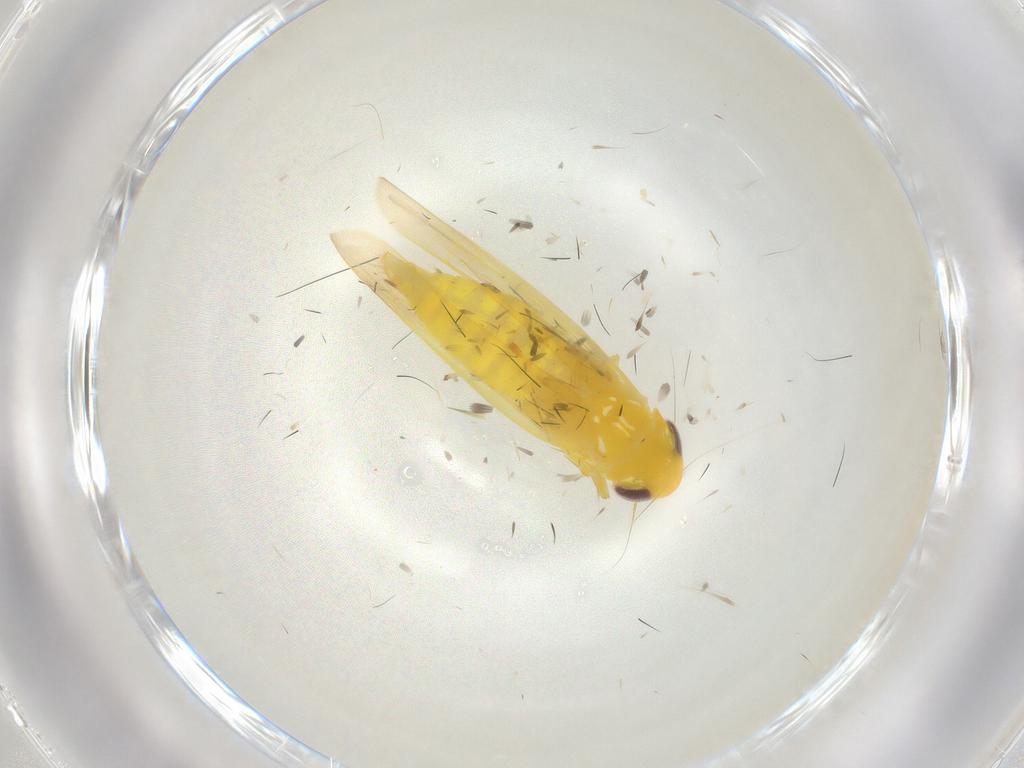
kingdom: Animalia
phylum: Arthropoda
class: Insecta
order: Hemiptera
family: Cicadellidae
